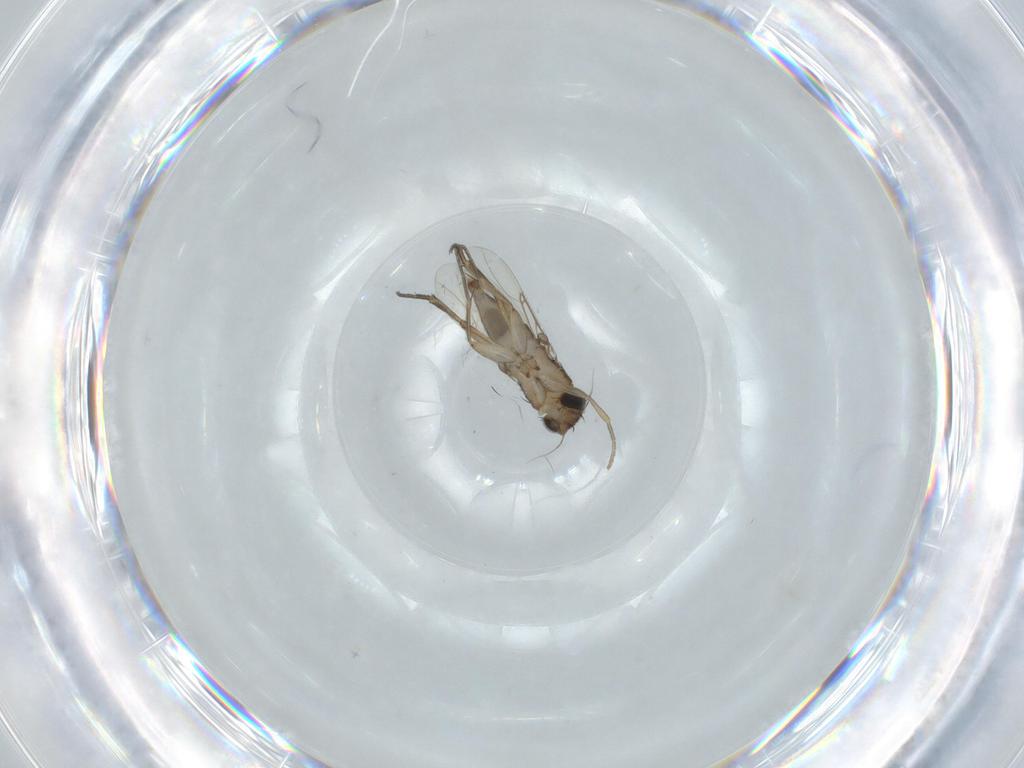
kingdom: Animalia
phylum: Arthropoda
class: Insecta
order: Diptera
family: Phoridae
